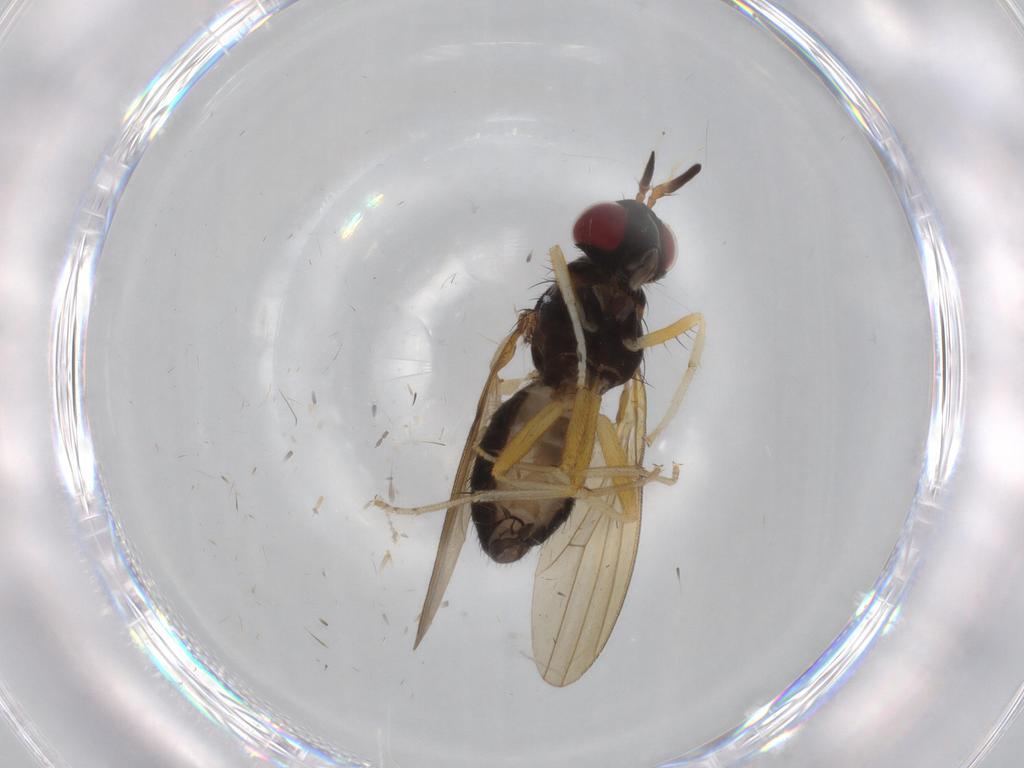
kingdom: Animalia
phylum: Arthropoda
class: Insecta
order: Diptera
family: Lauxaniidae
